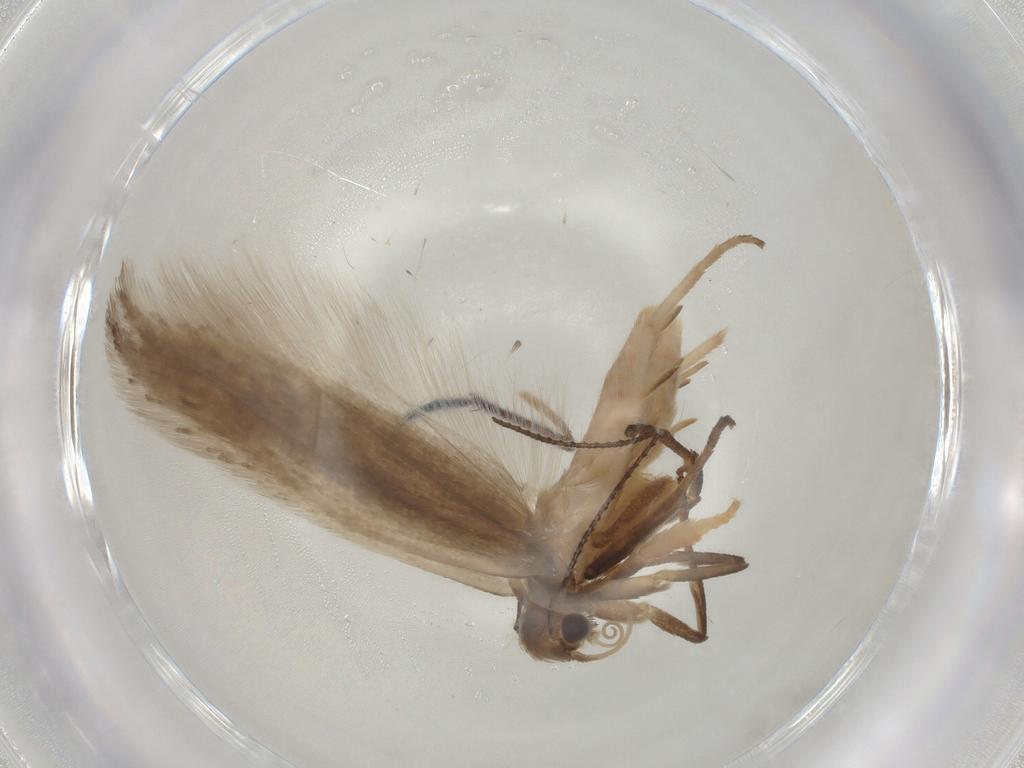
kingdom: Animalia
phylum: Arthropoda
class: Insecta
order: Lepidoptera
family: Gelechiidae
